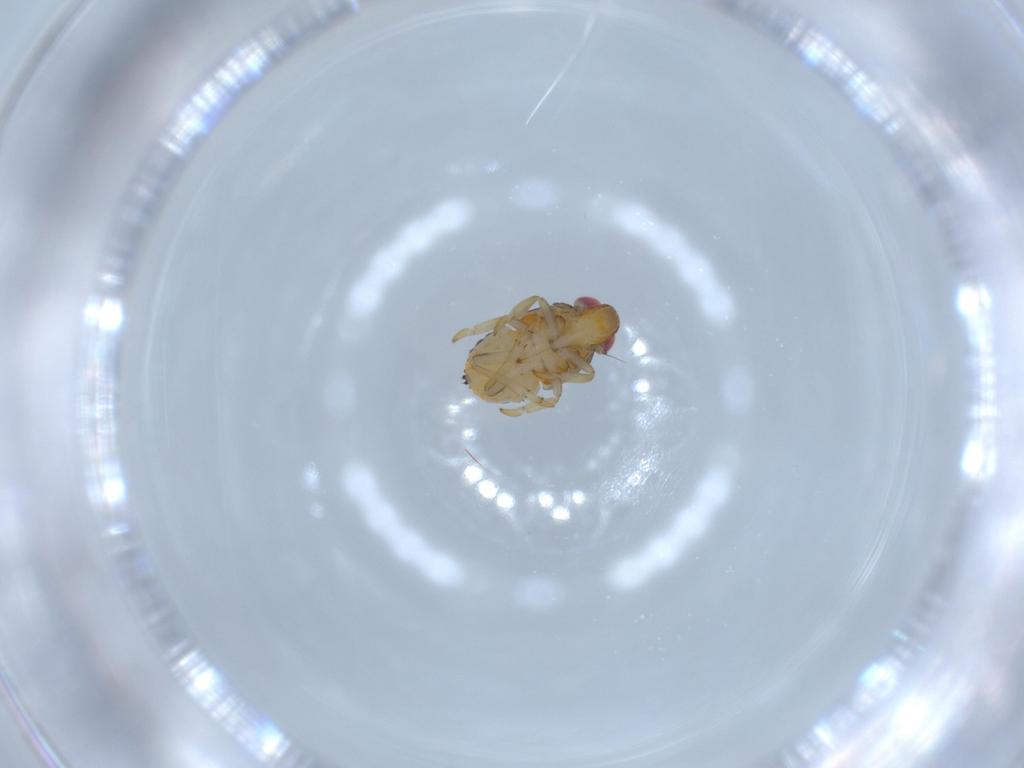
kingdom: Animalia
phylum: Arthropoda
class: Insecta
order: Hemiptera
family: Issidae
